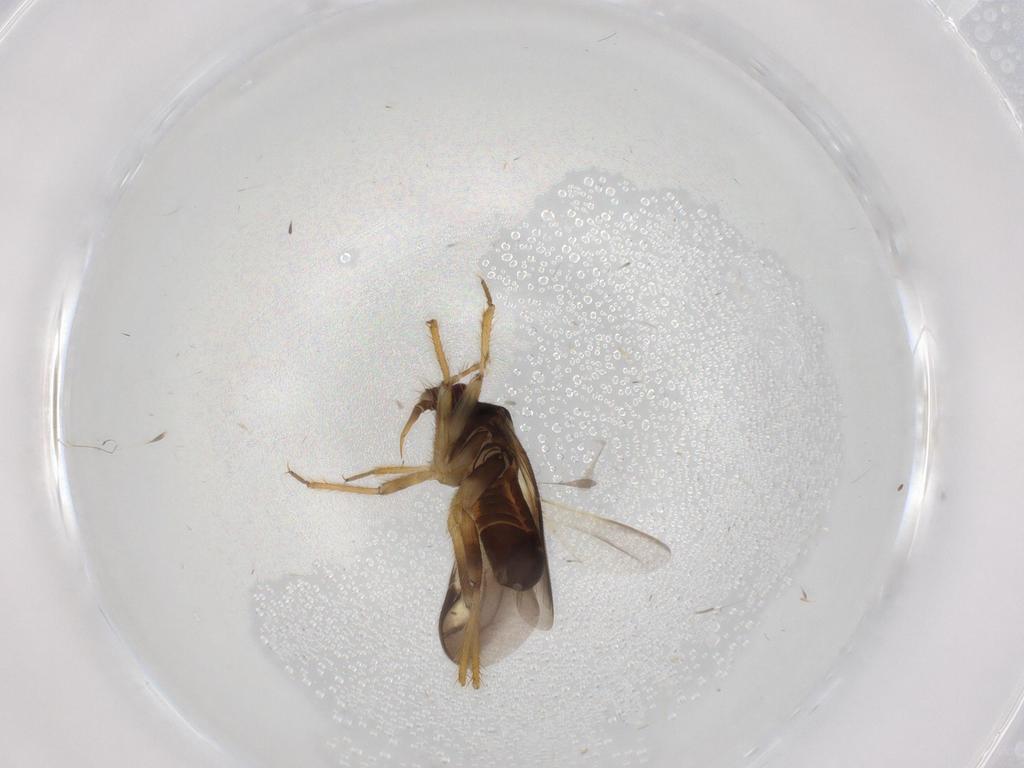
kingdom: Animalia
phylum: Arthropoda
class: Insecta
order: Hemiptera
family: Ceratocombidae
